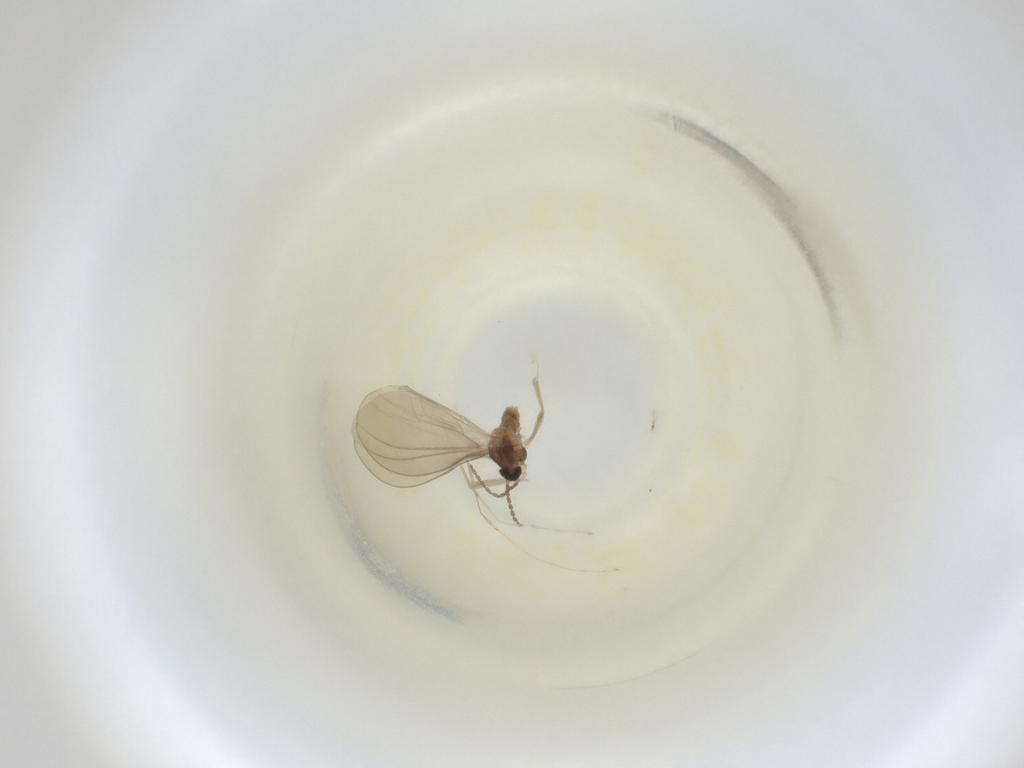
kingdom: Animalia
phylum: Arthropoda
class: Insecta
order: Diptera
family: Cecidomyiidae
